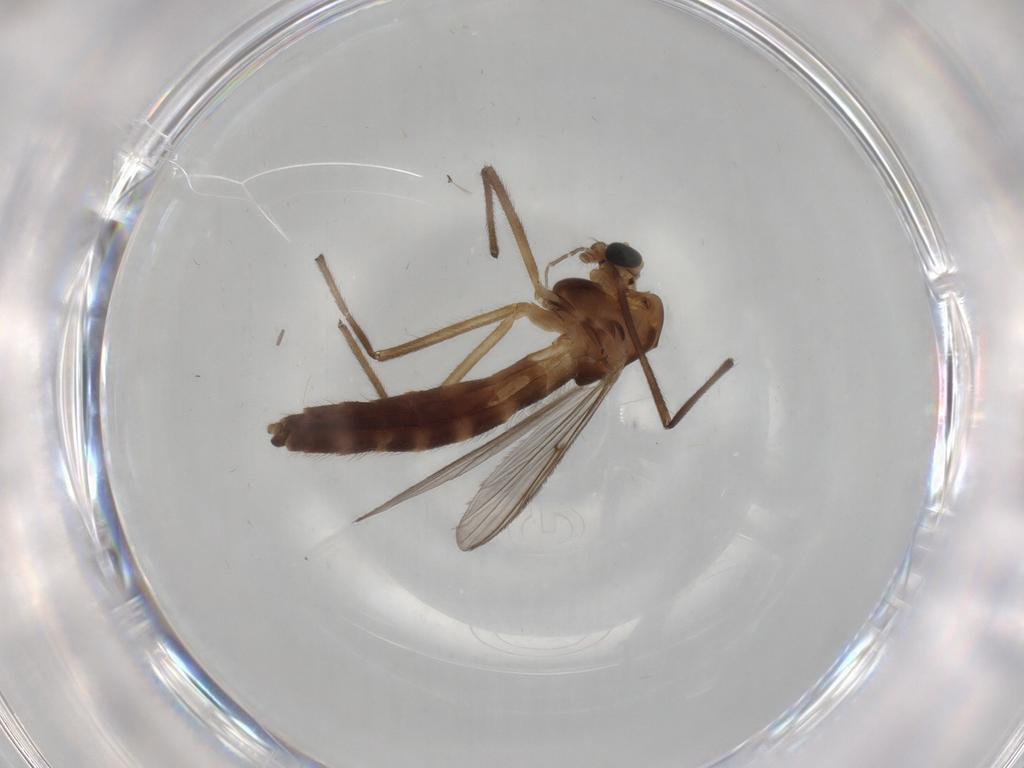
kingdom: Animalia
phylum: Arthropoda
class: Insecta
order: Diptera
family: Chironomidae
